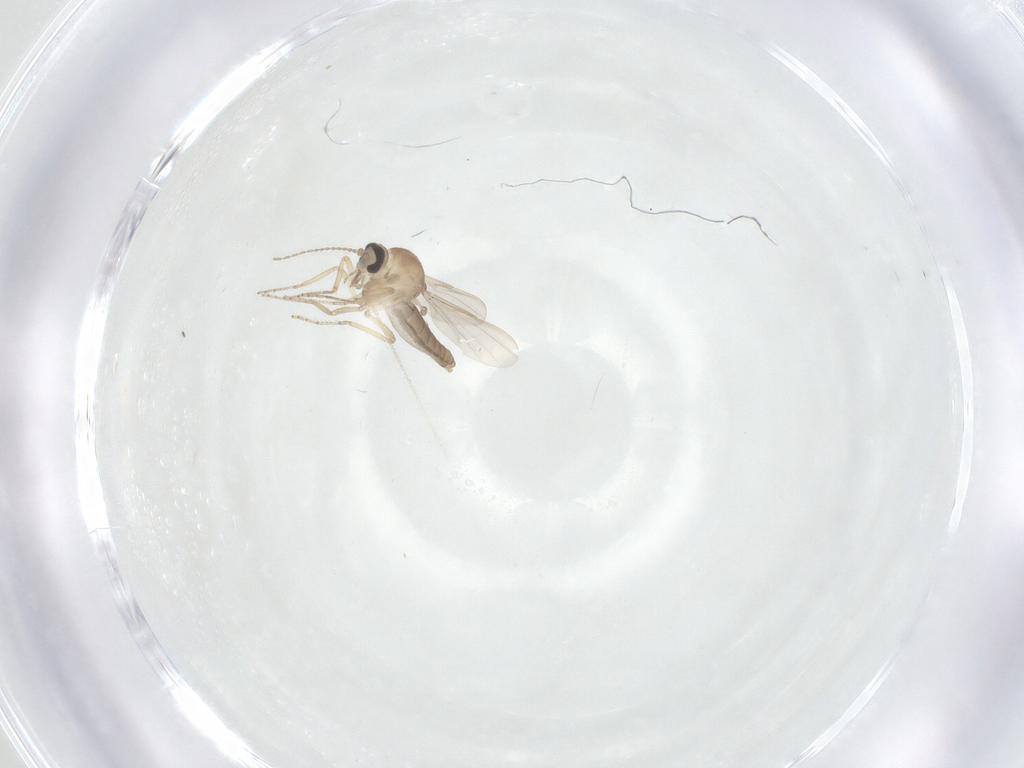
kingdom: Animalia
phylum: Arthropoda
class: Insecta
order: Diptera
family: Ceratopogonidae
